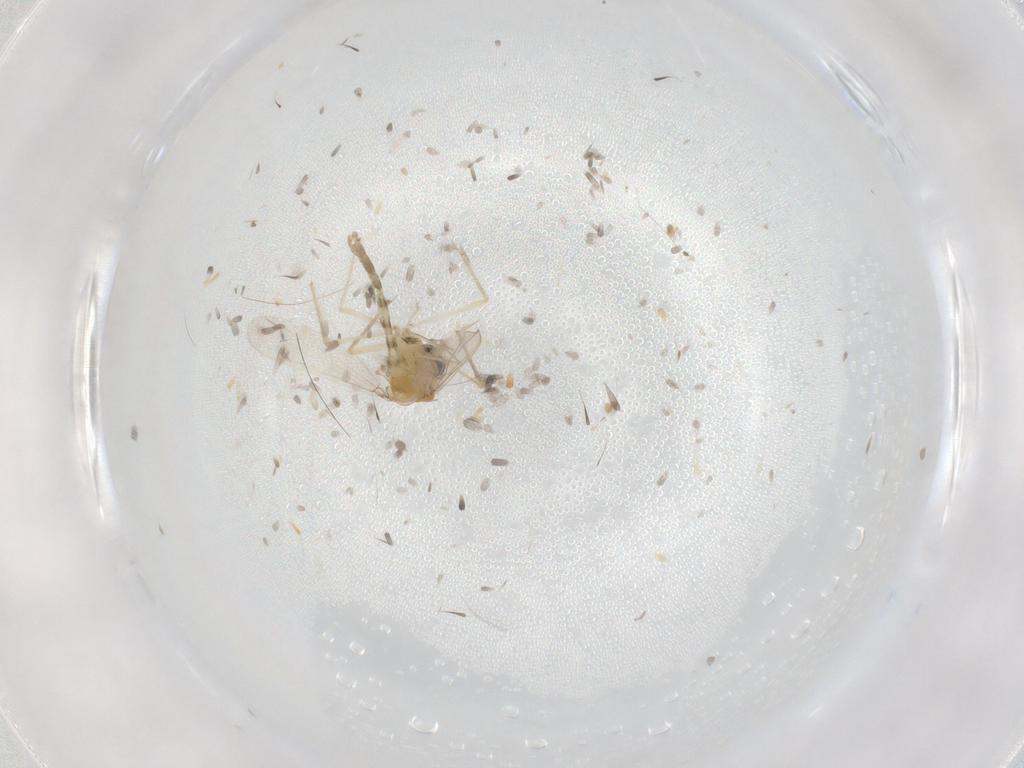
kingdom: Animalia
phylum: Arthropoda
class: Insecta
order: Diptera
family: Chironomidae
